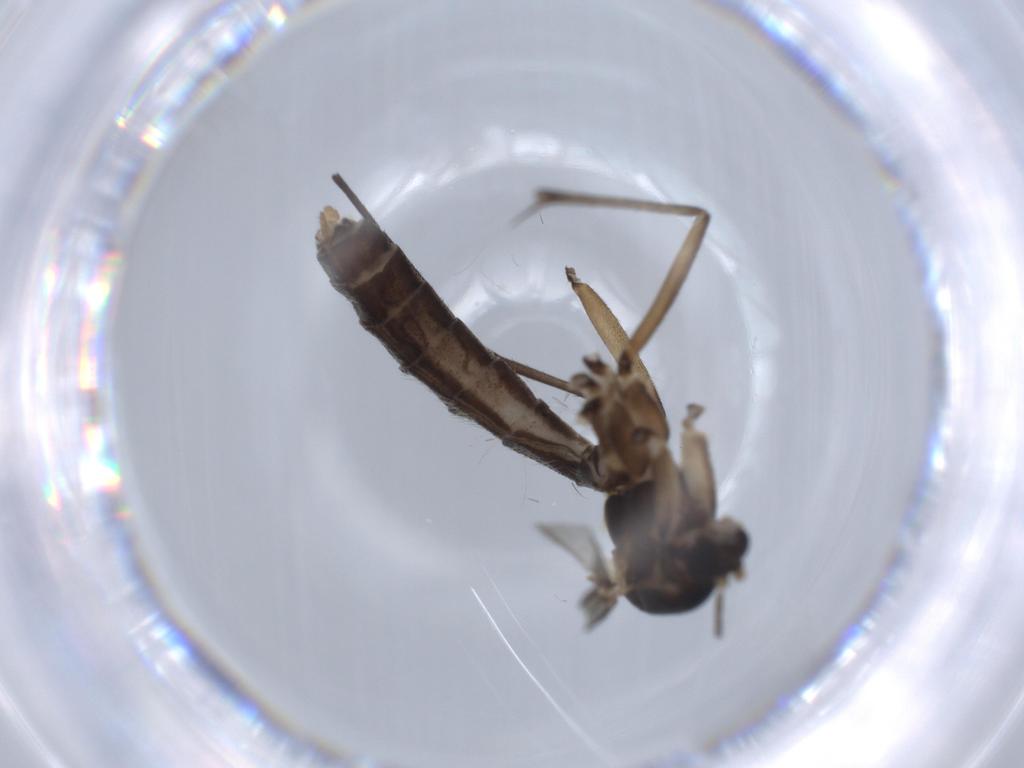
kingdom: Animalia
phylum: Arthropoda
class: Insecta
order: Diptera
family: Mycetophilidae
